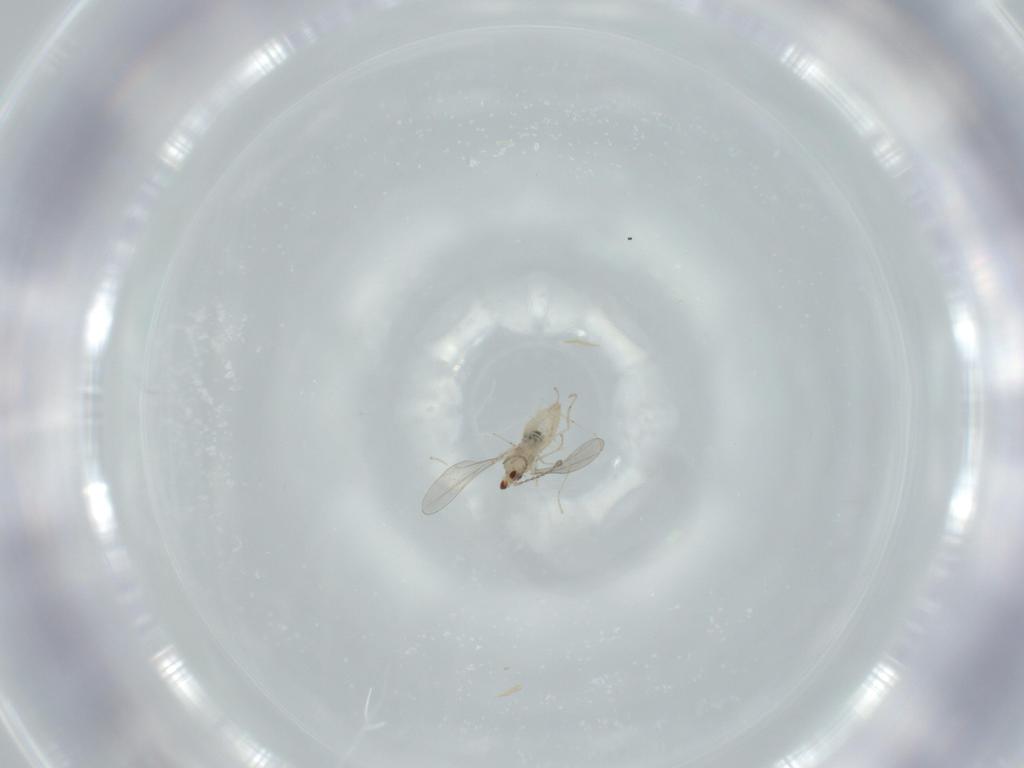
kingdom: Animalia
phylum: Arthropoda
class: Insecta
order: Diptera
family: Cecidomyiidae
